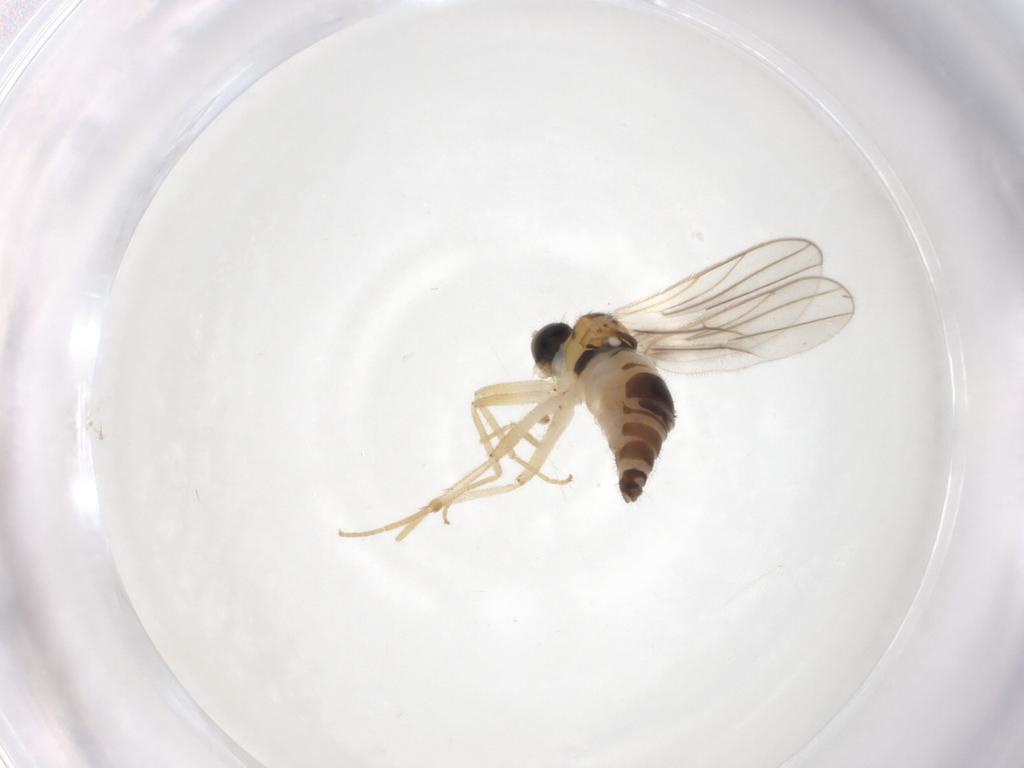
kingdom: Animalia
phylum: Arthropoda
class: Insecta
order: Diptera
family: Hybotidae
